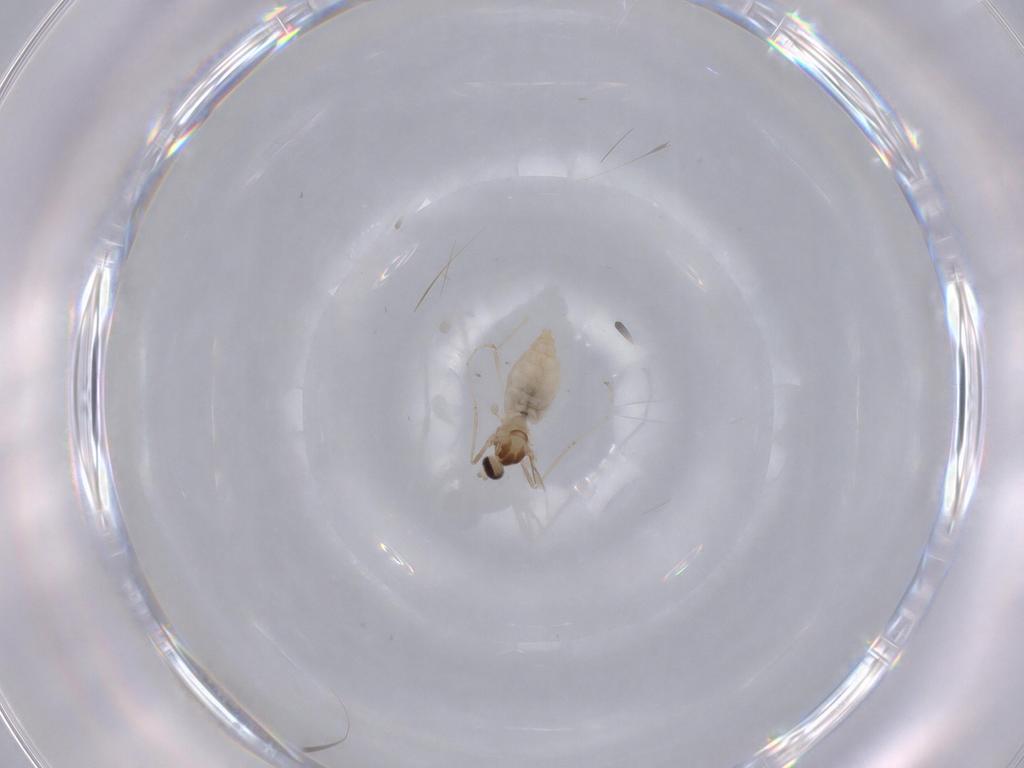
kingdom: Animalia
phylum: Arthropoda
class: Insecta
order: Diptera
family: Milichiidae
